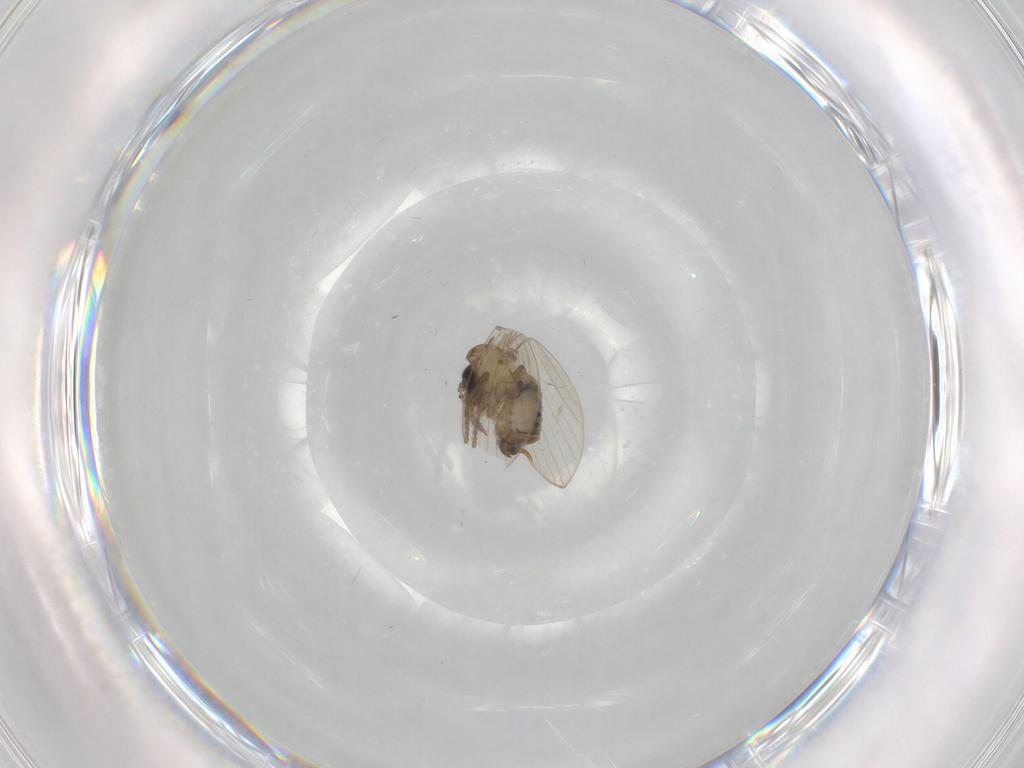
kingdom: Animalia
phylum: Arthropoda
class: Insecta
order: Diptera
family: Psychodidae
